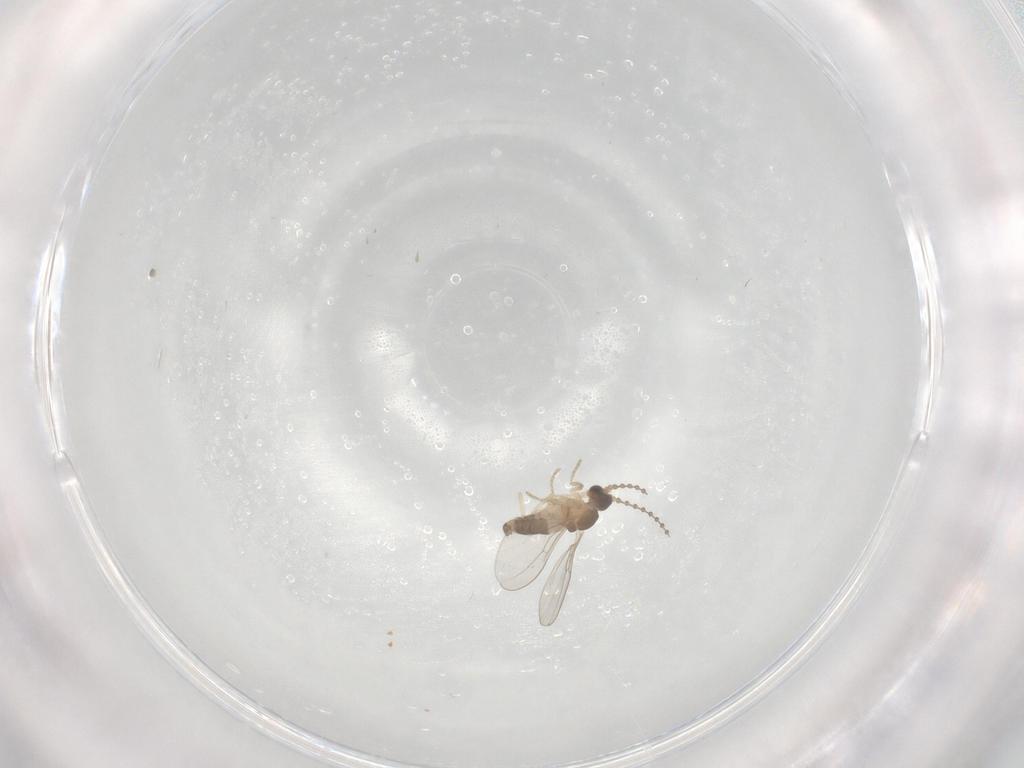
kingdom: Animalia
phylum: Arthropoda
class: Insecta
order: Diptera
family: Cecidomyiidae
